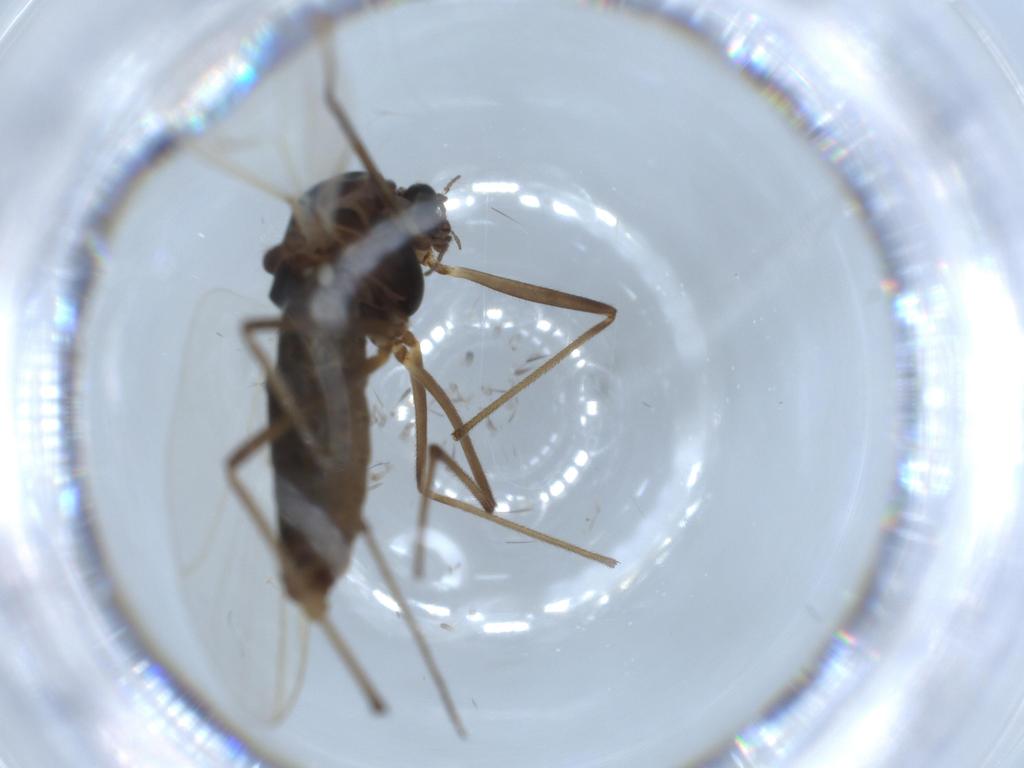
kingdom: Animalia
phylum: Arthropoda
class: Insecta
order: Diptera
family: Chironomidae
